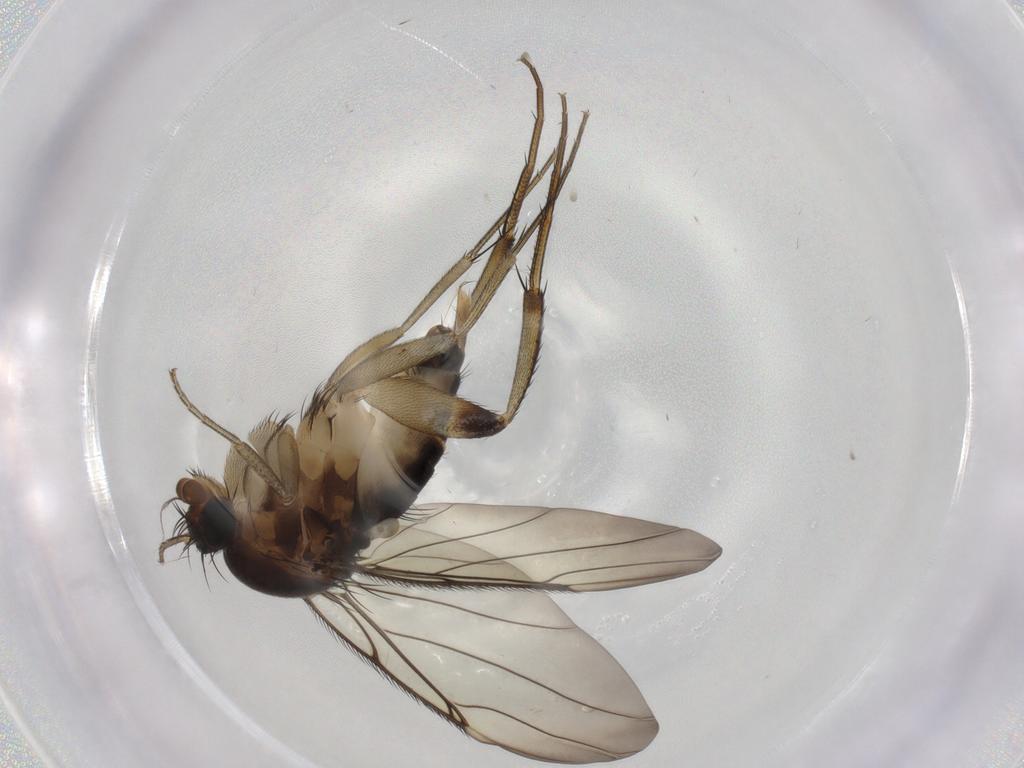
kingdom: Animalia
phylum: Arthropoda
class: Insecta
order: Diptera
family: Phoridae
